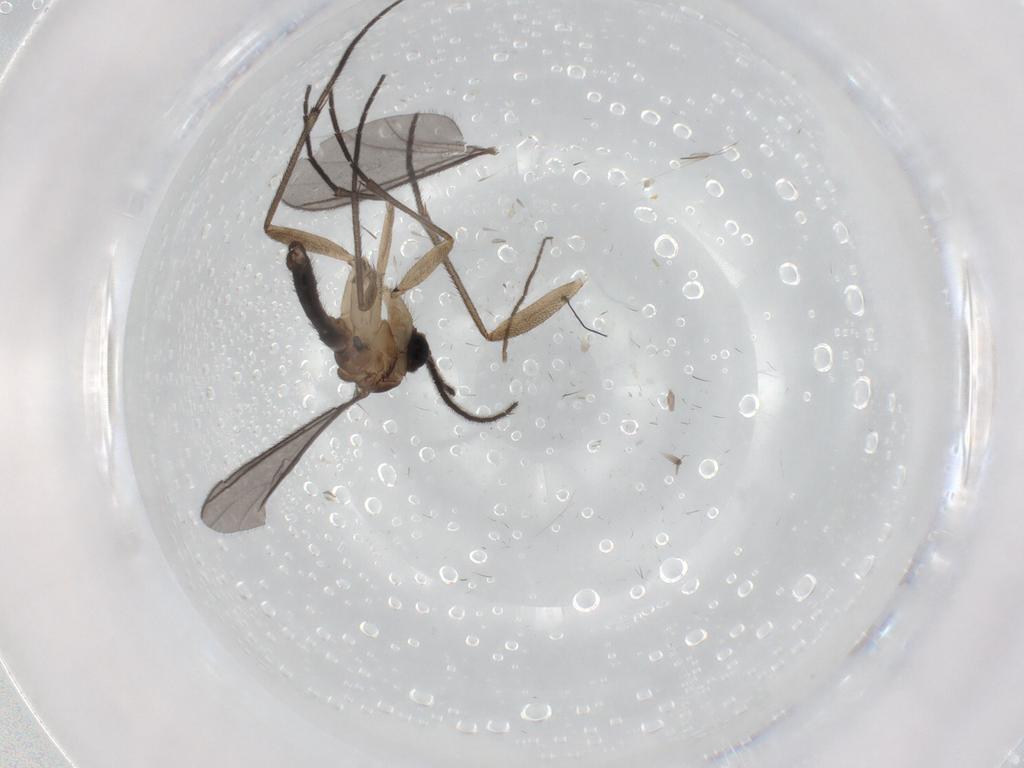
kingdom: Animalia
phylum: Arthropoda
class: Insecta
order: Diptera
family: Sciaridae
